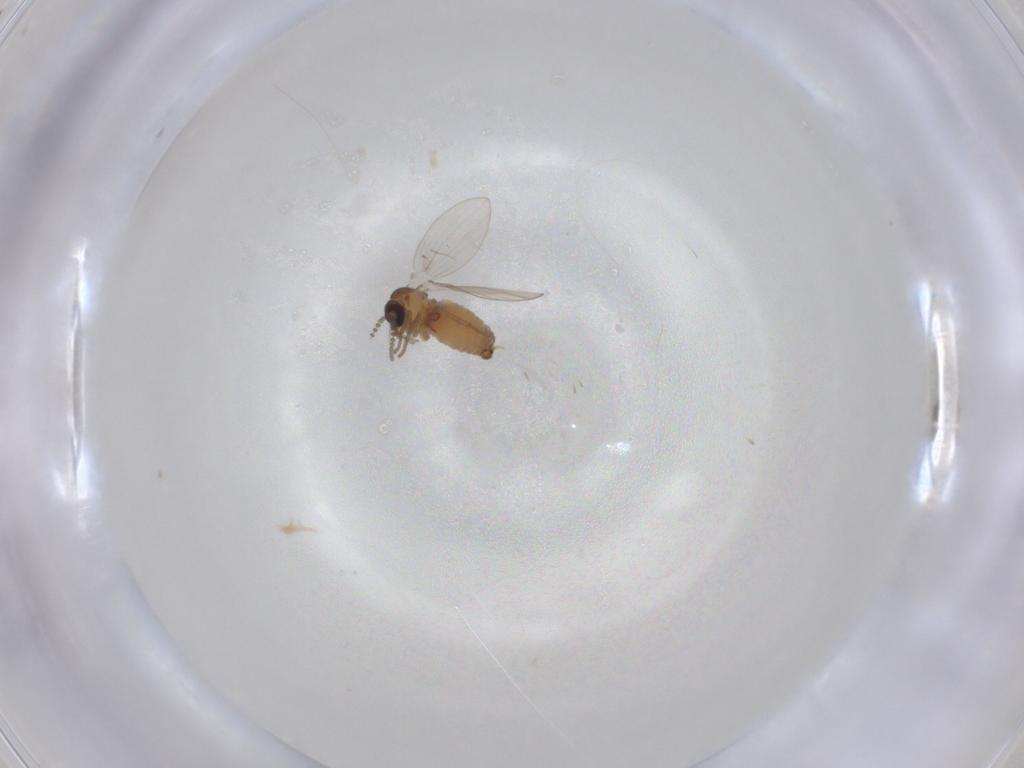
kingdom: Animalia
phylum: Arthropoda
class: Insecta
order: Diptera
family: Psychodidae
